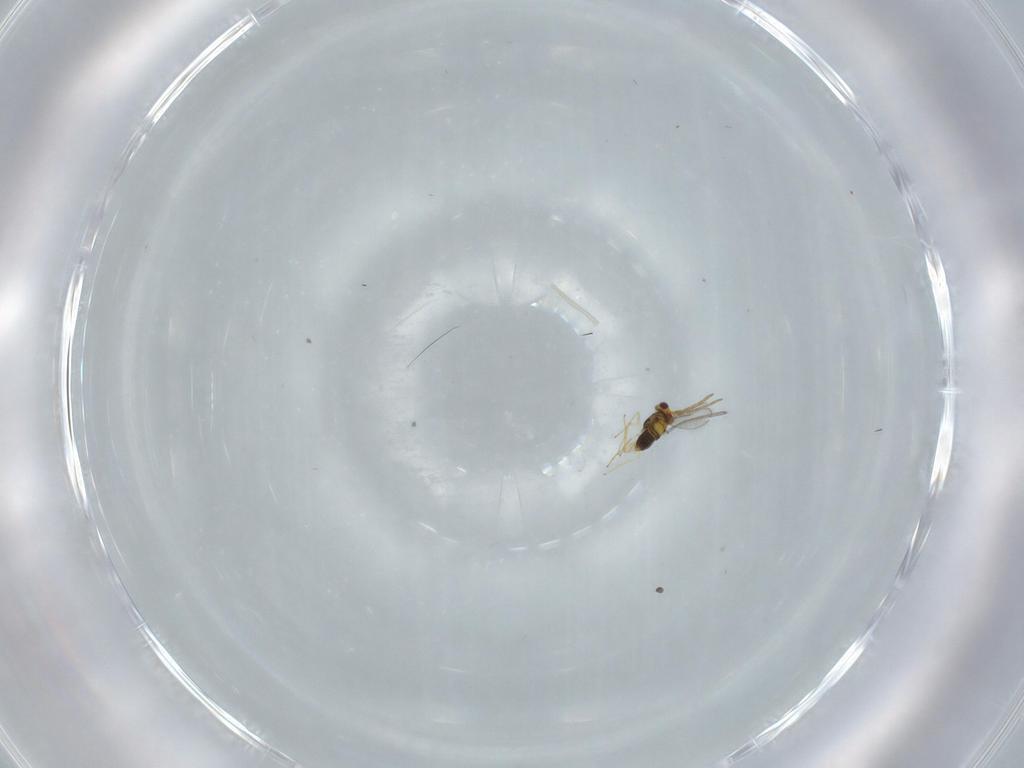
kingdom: Animalia
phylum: Arthropoda
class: Insecta
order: Hymenoptera
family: Aphelinidae
